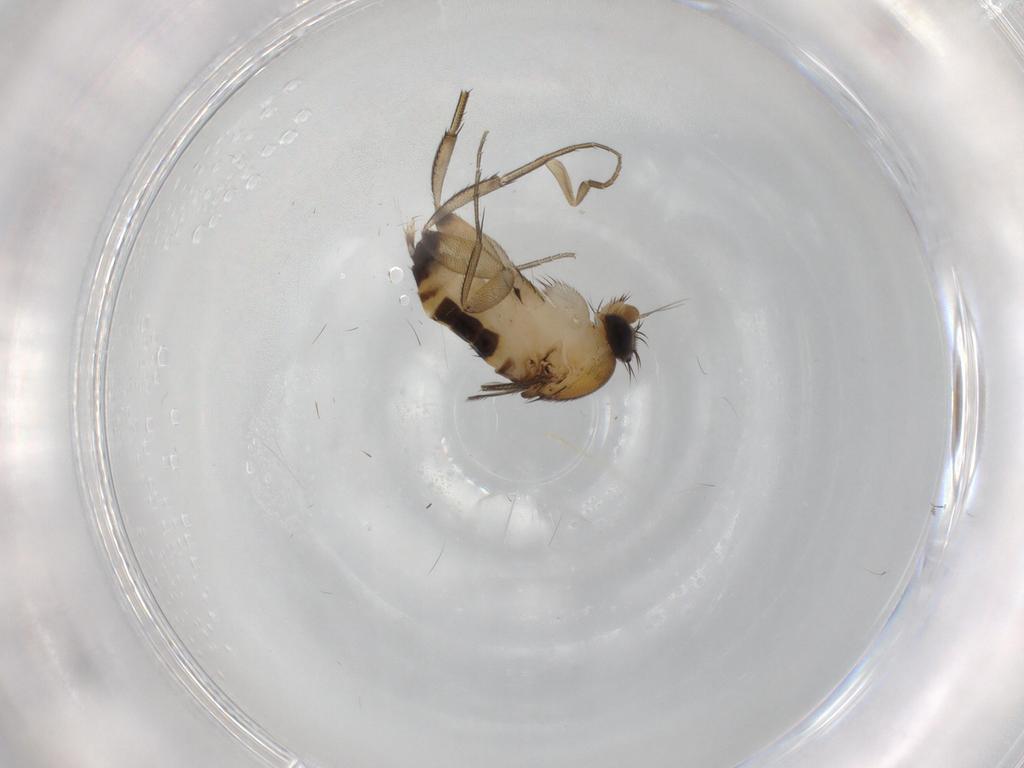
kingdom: Animalia
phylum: Arthropoda
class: Insecta
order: Diptera
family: Phoridae
